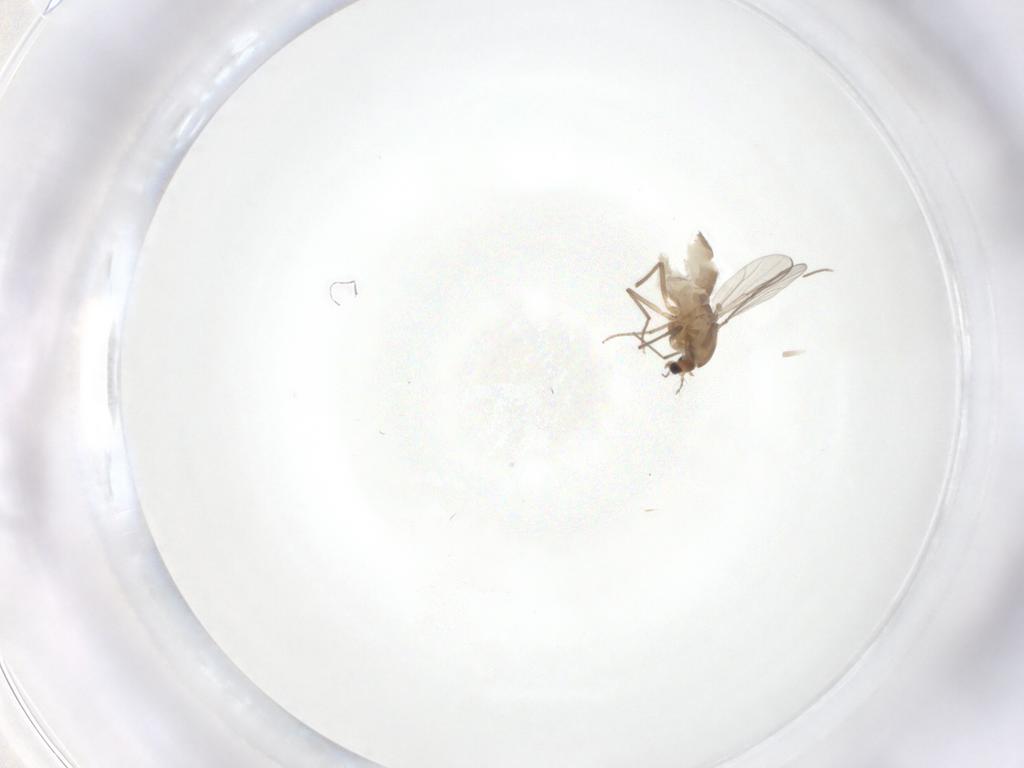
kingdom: Animalia
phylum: Arthropoda
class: Insecta
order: Diptera
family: Chironomidae
